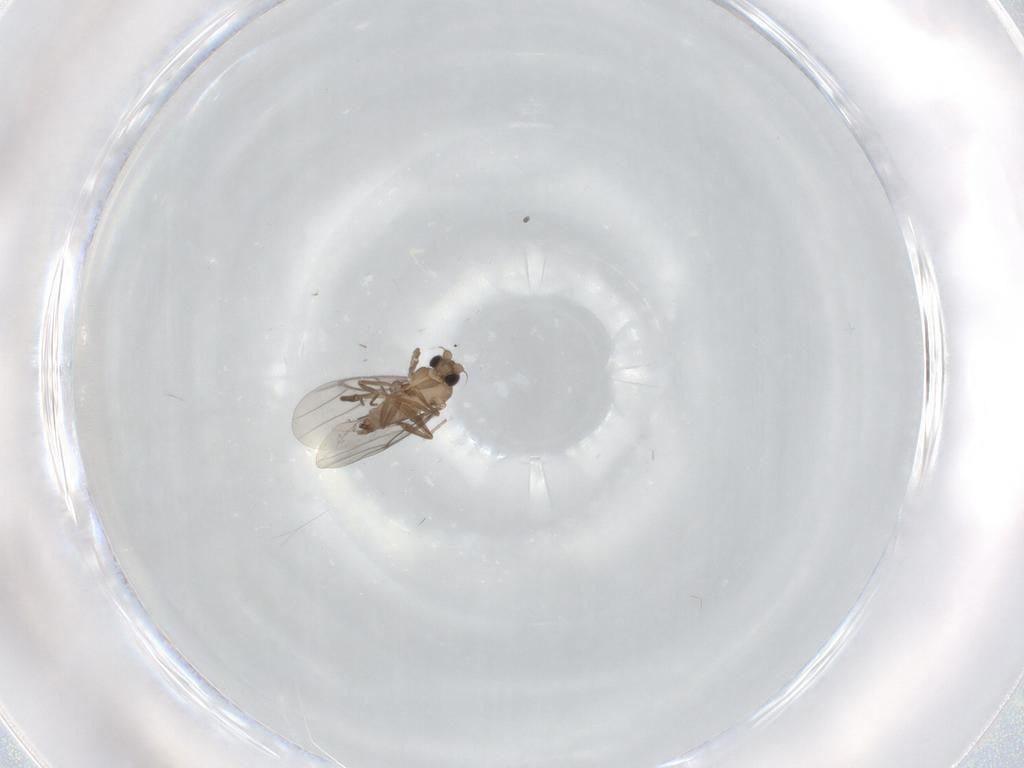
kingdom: Animalia
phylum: Arthropoda
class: Insecta
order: Diptera
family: Cecidomyiidae
